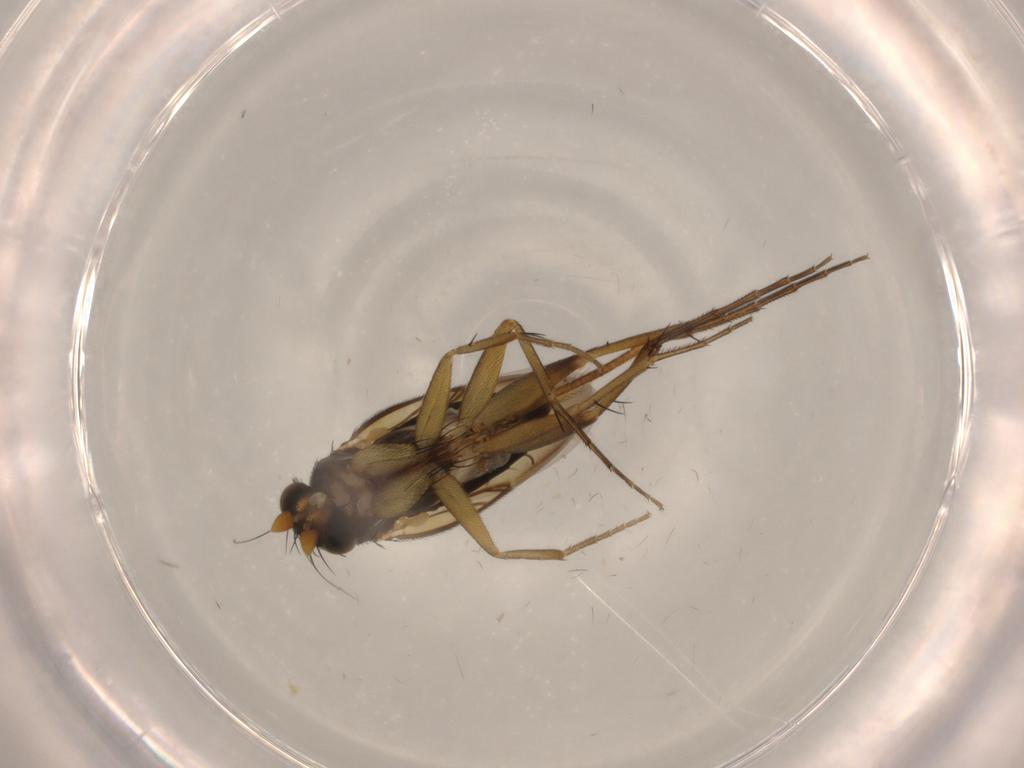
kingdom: Animalia
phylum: Arthropoda
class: Insecta
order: Diptera
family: Phoridae
